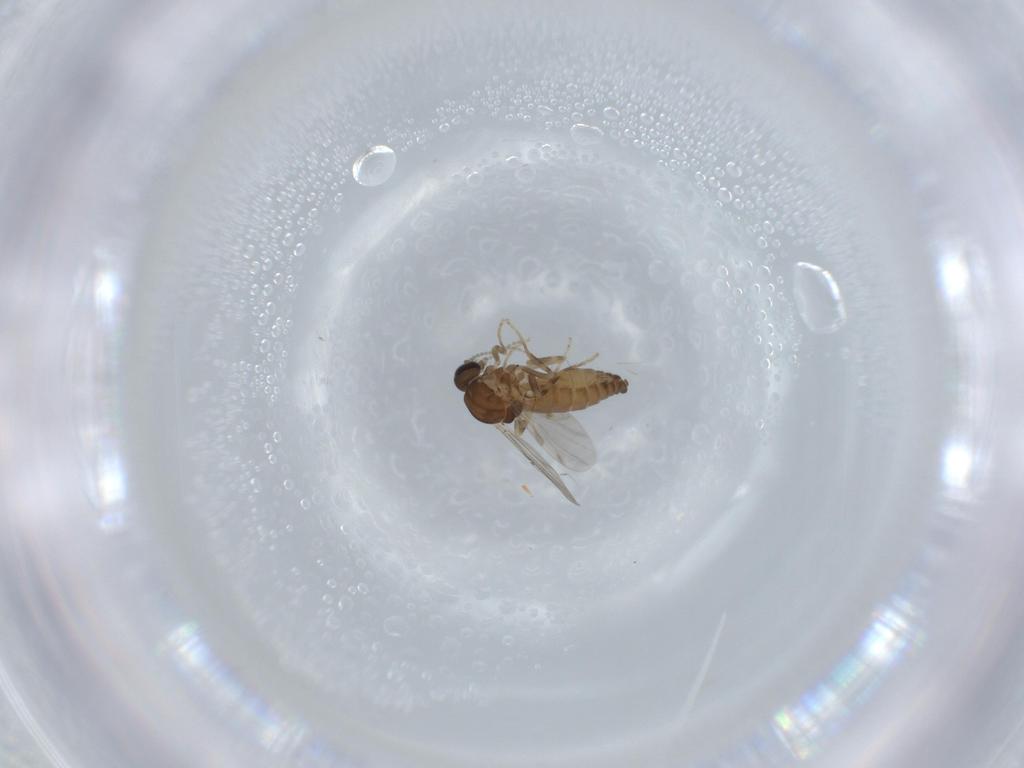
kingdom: Animalia
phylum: Arthropoda
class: Insecta
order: Diptera
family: Ceratopogonidae
